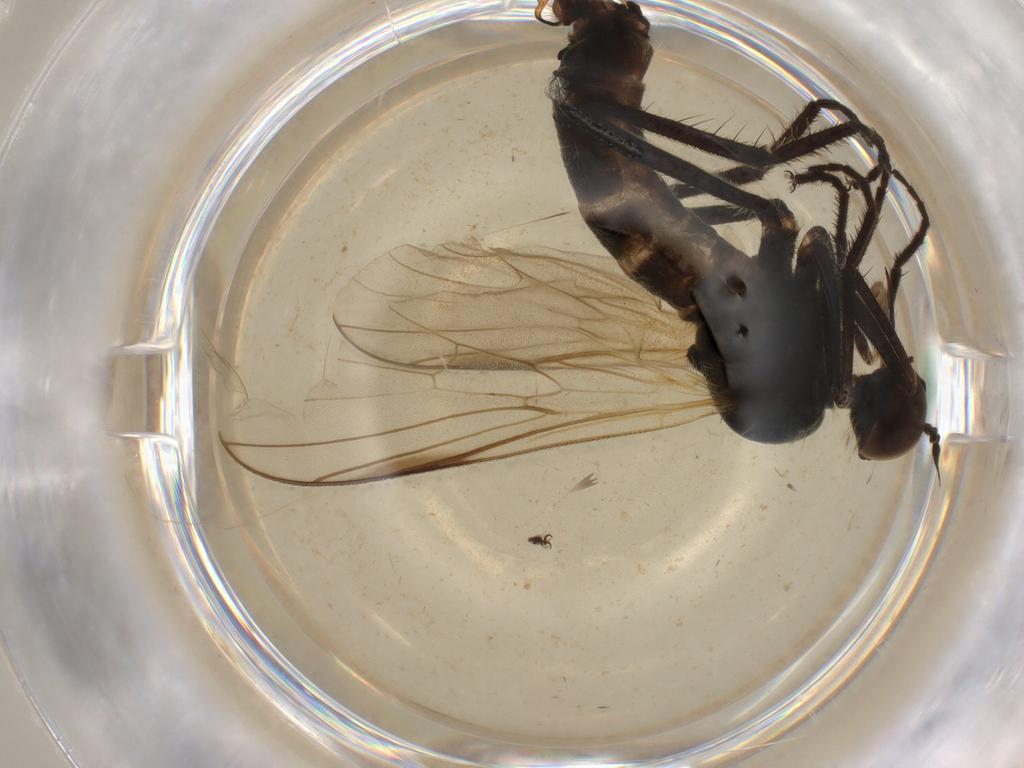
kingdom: Animalia
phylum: Arthropoda
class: Insecta
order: Diptera
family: Empididae
